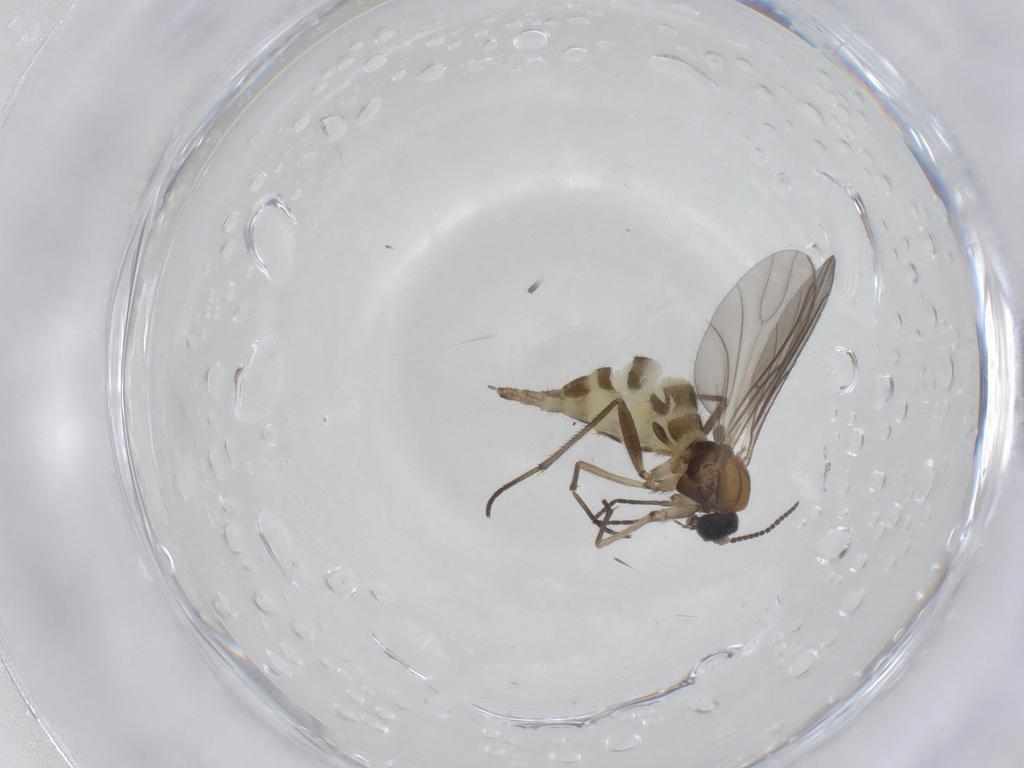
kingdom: Animalia
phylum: Arthropoda
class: Insecta
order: Diptera
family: Sciaridae
